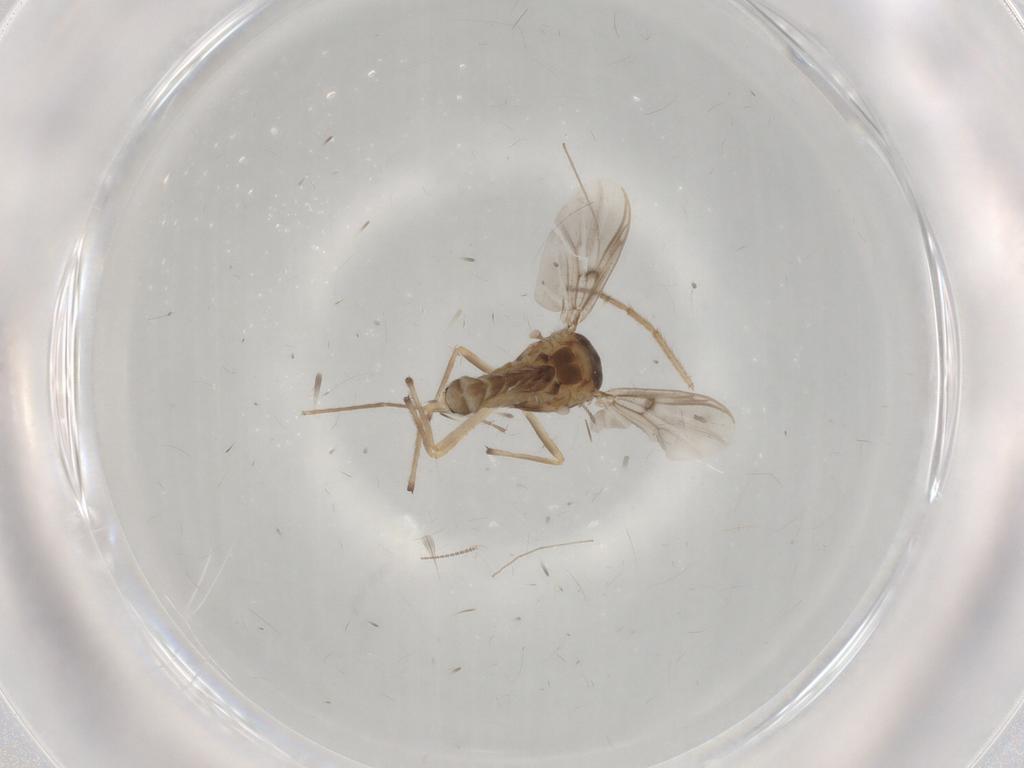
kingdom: Animalia
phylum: Arthropoda
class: Insecta
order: Diptera
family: Chironomidae
